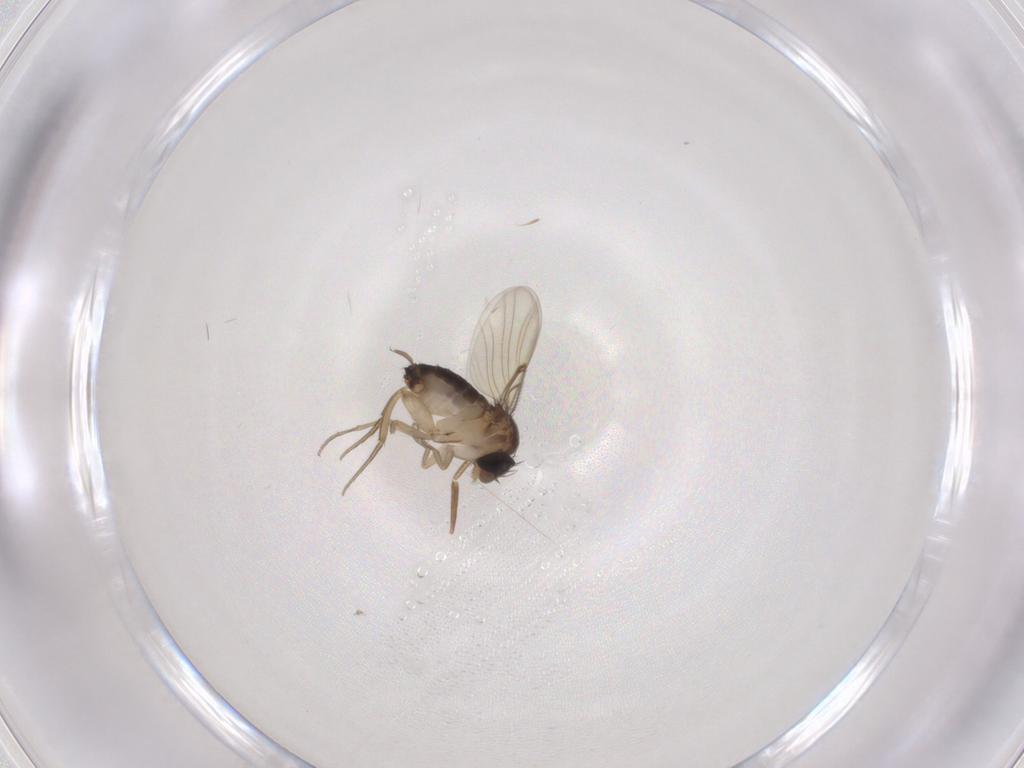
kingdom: Animalia
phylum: Arthropoda
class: Insecta
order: Diptera
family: Phoridae
